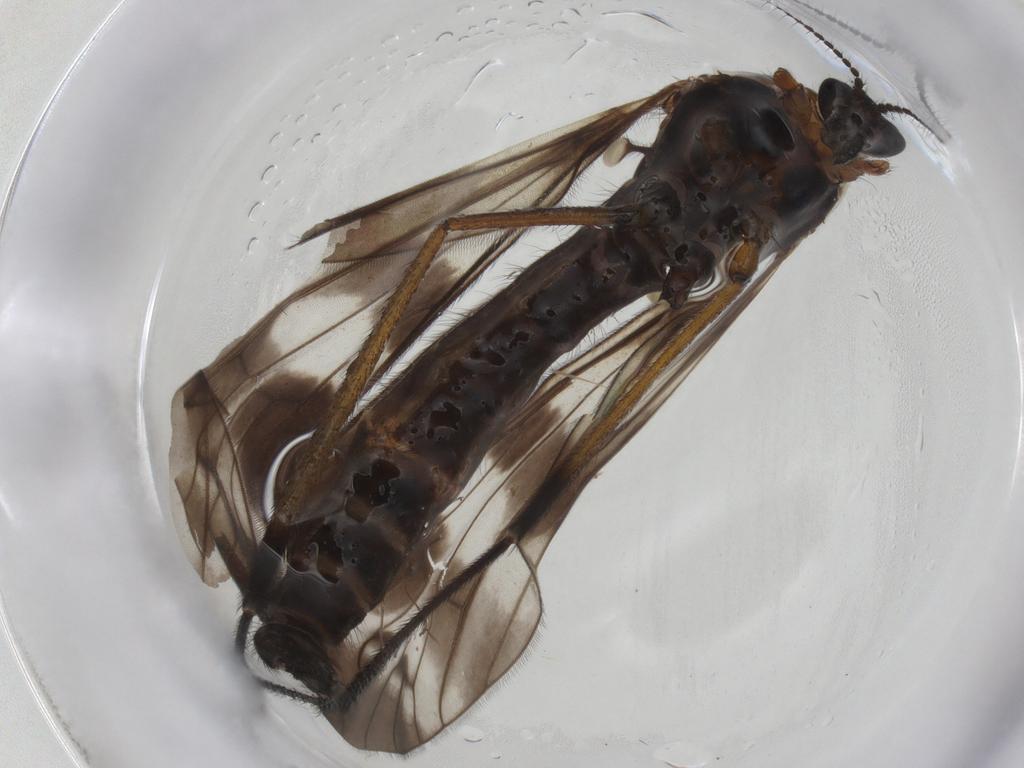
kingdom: Animalia
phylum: Arthropoda
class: Insecta
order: Diptera
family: Limoniidae
